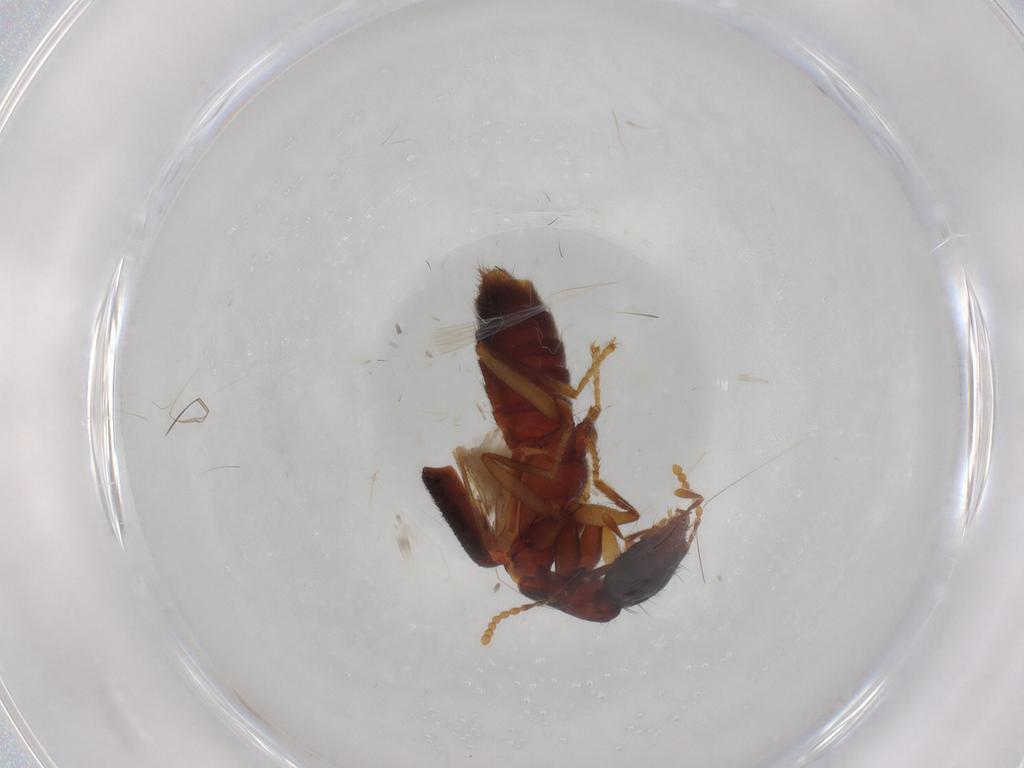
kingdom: Animalia
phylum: Arthropoda
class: Insecta
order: Coleoptera
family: Staphylinidae
